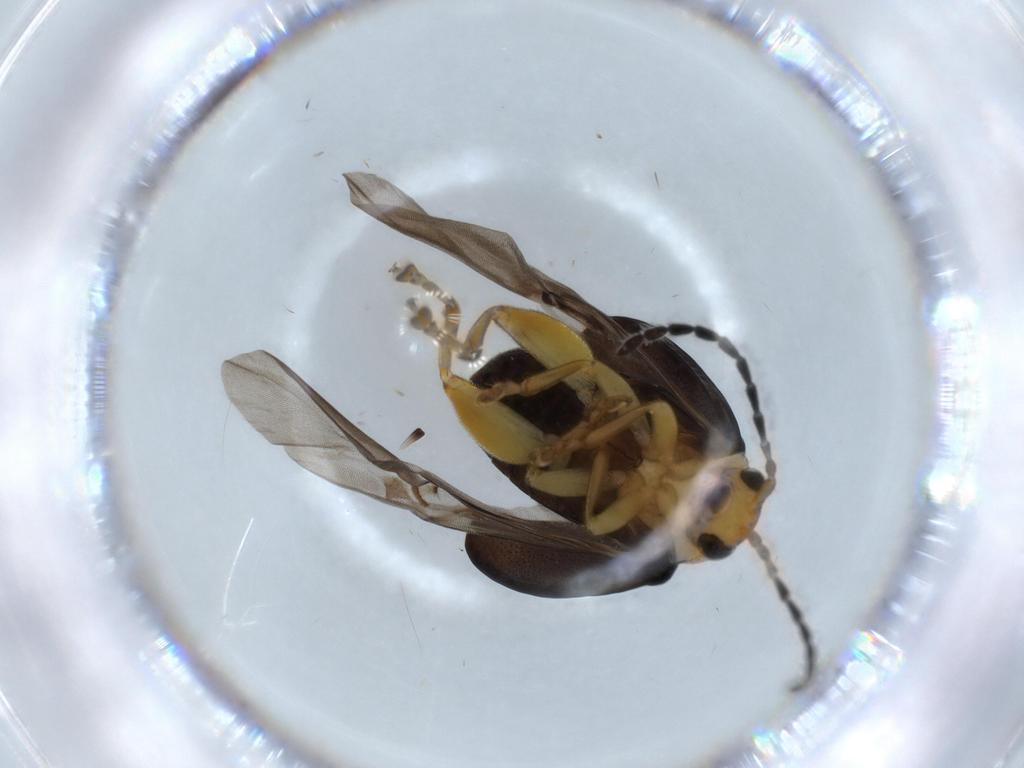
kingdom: Animalia
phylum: Arthropoda
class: Insecta
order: Coleoptera
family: Chrysomelidae
